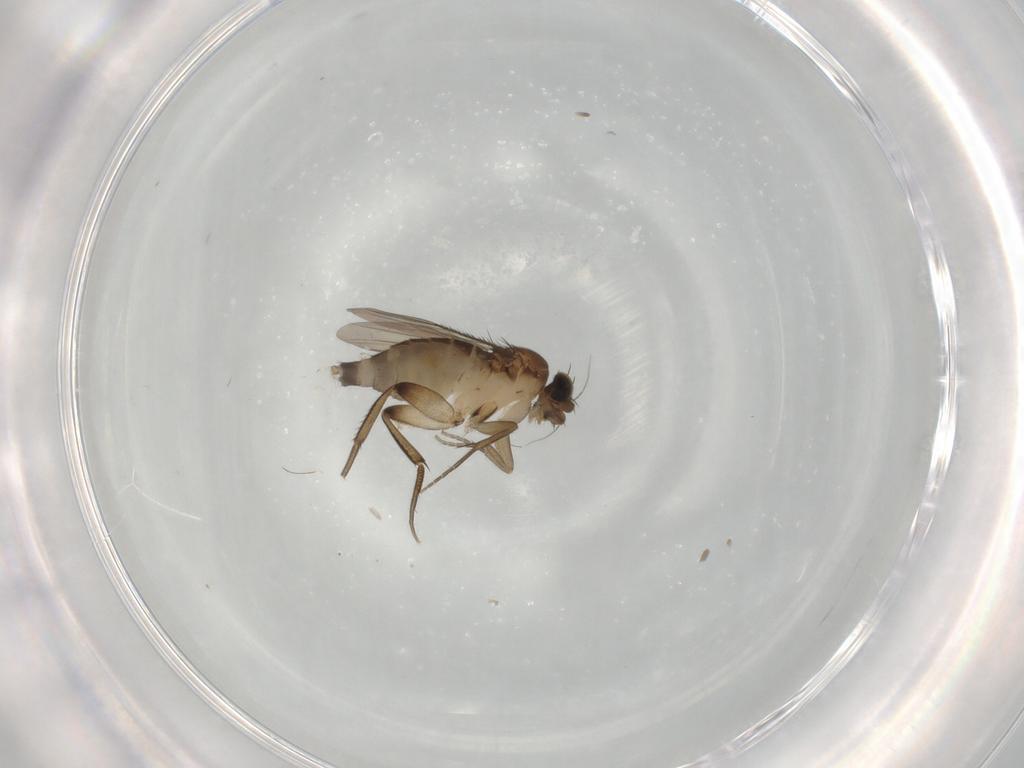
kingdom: Animalia
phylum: Arthropoda
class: Insecta
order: Diptera
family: Phoridae
